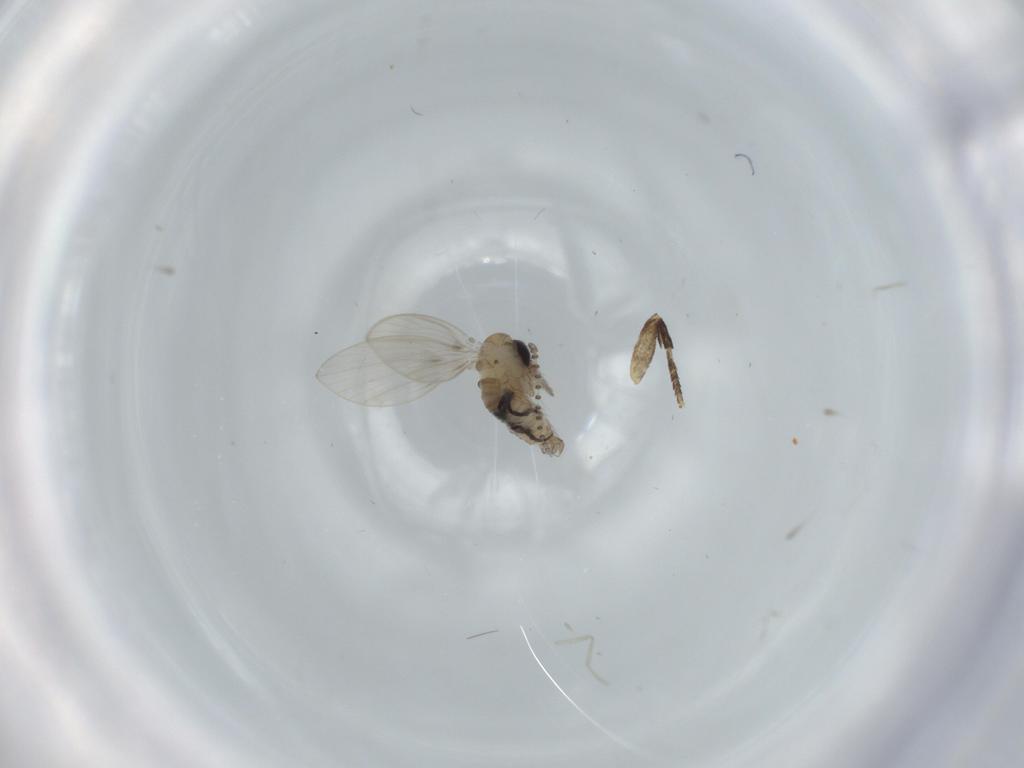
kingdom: Animalia
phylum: Arthropoda
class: Insecta
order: Diptera
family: Psychodidae
